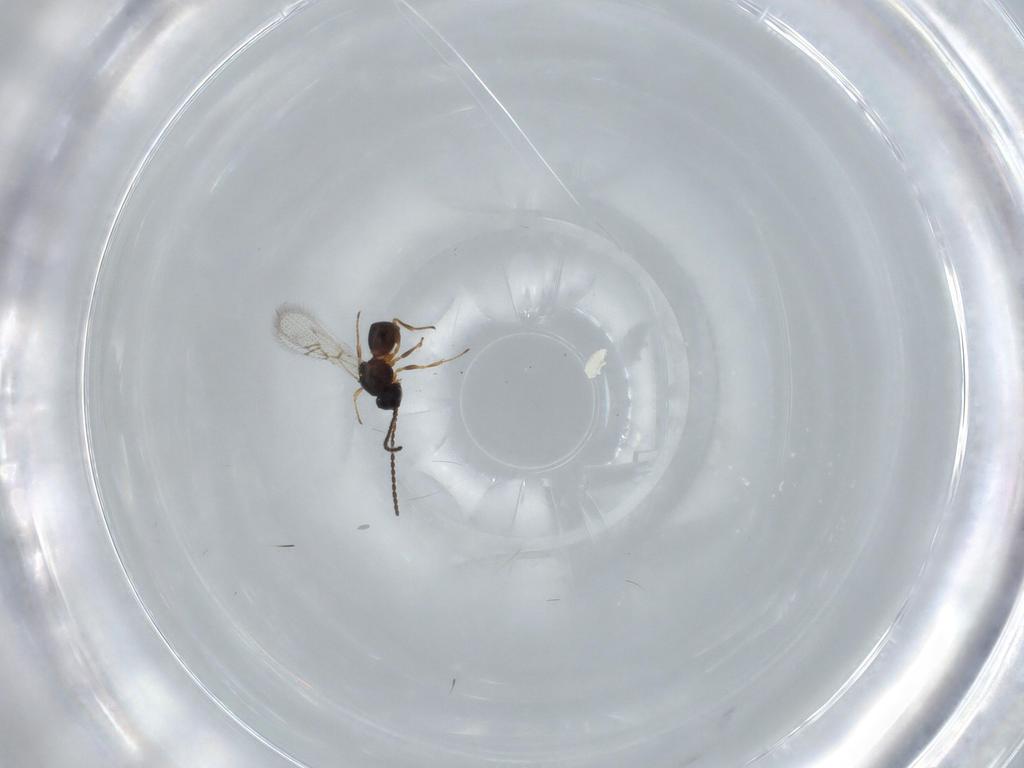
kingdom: Animalia
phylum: Arthropoda
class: Insecta
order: Hymenoptera
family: Figitidae
